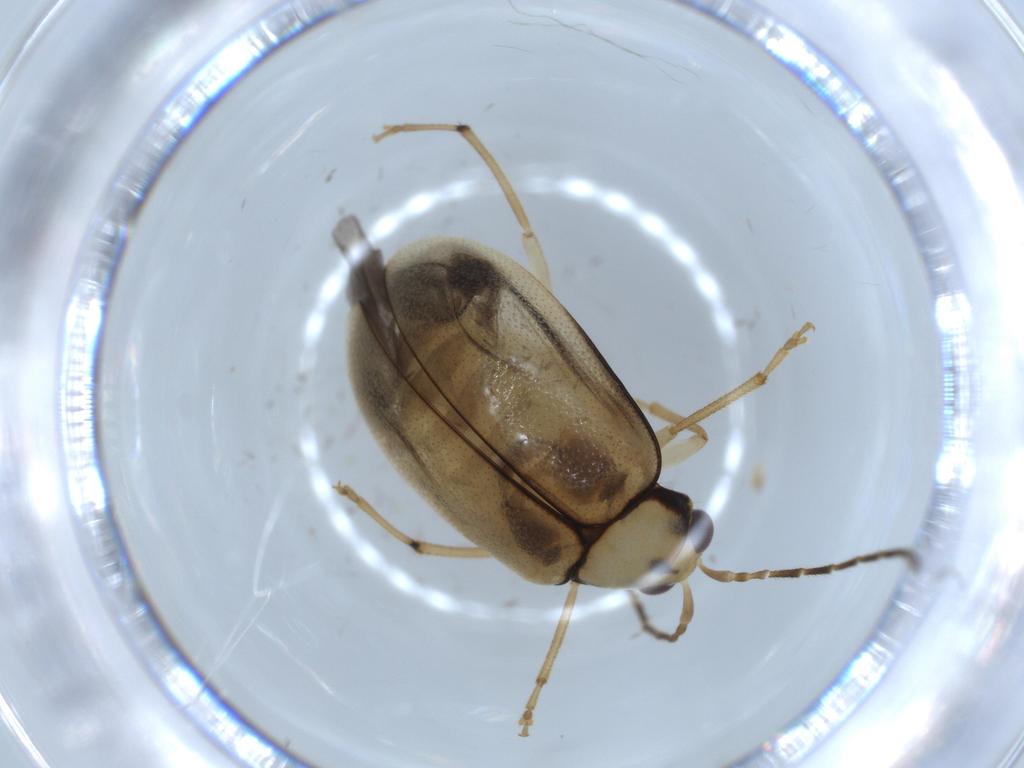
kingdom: Animalia
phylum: Arthropoda
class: Insecta
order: Coleoptera
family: Chrysomelidae
